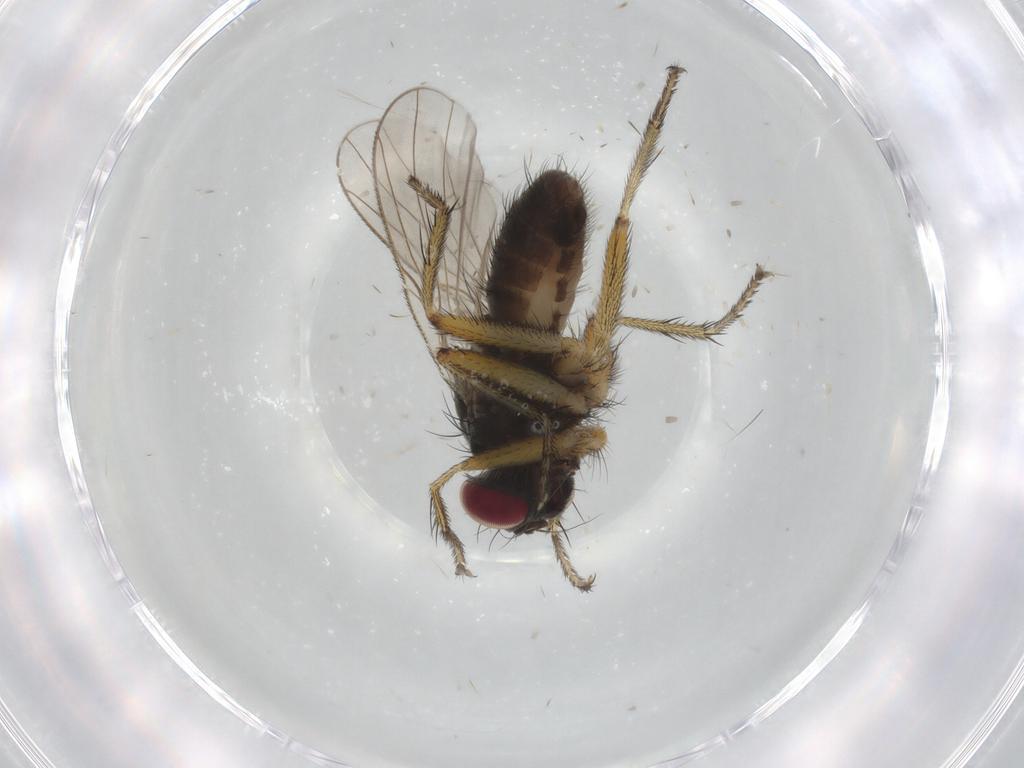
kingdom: Animalia
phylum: Arthropoda
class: Insecta
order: Diptera
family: Muscidae
